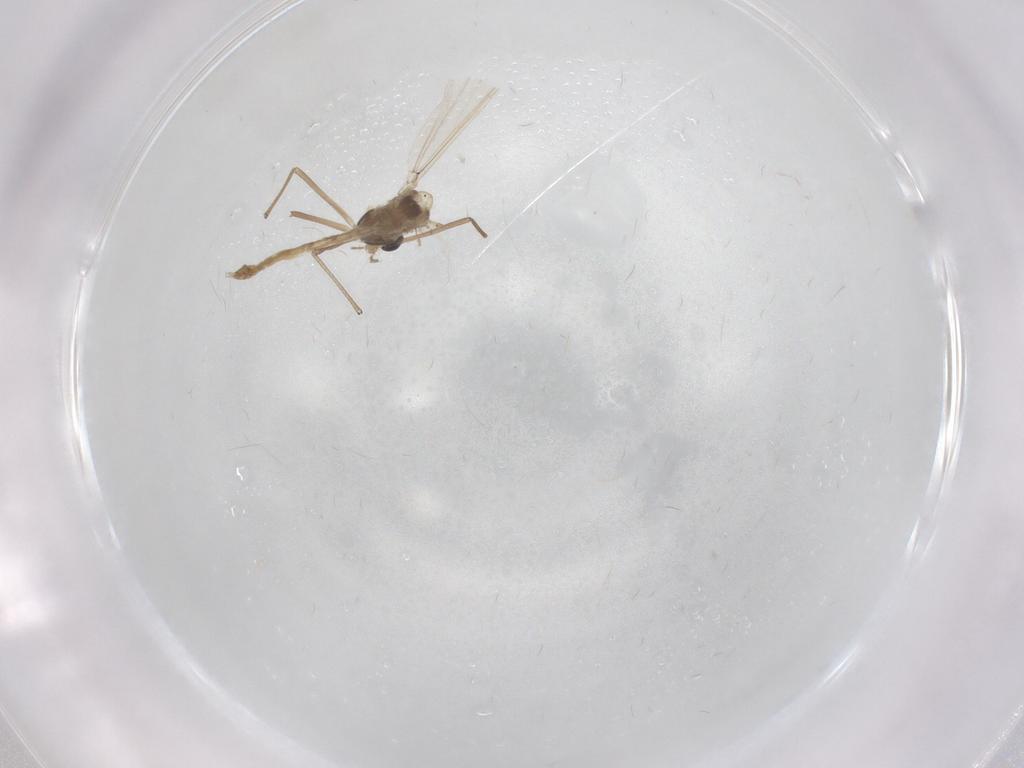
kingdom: Animalia
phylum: Arthropoda
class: Insecta
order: Diptera
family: Chironomidae
